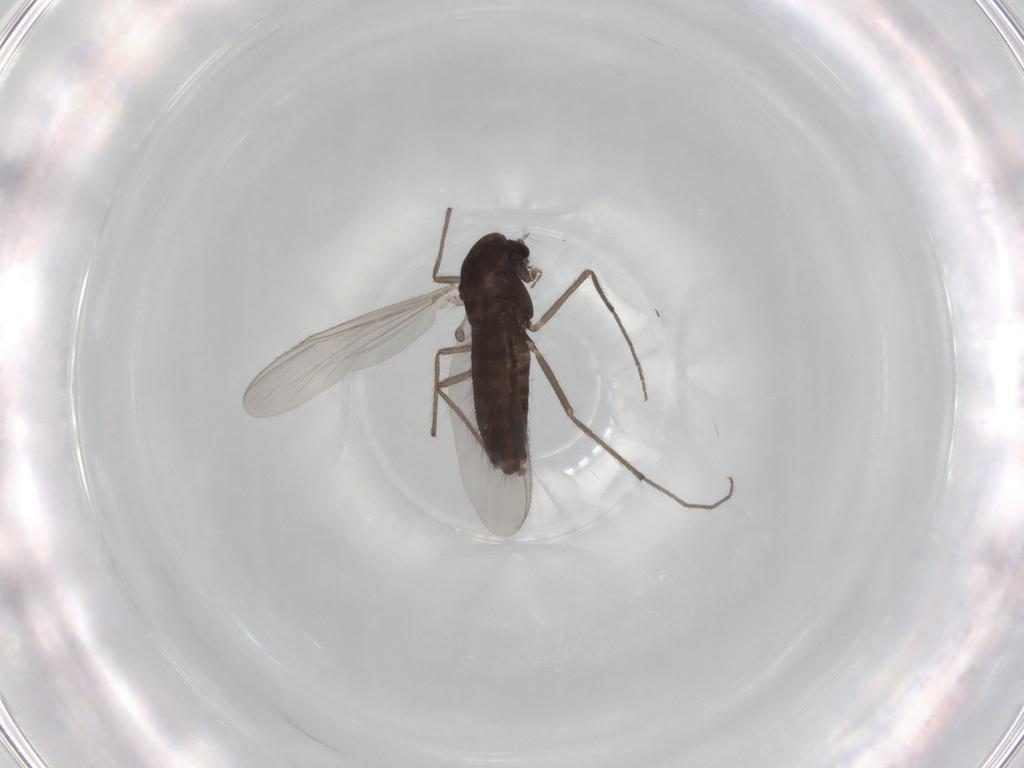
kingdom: Animalia
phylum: Arthropoda
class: Insecta
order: Diptera
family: Chironomidae
